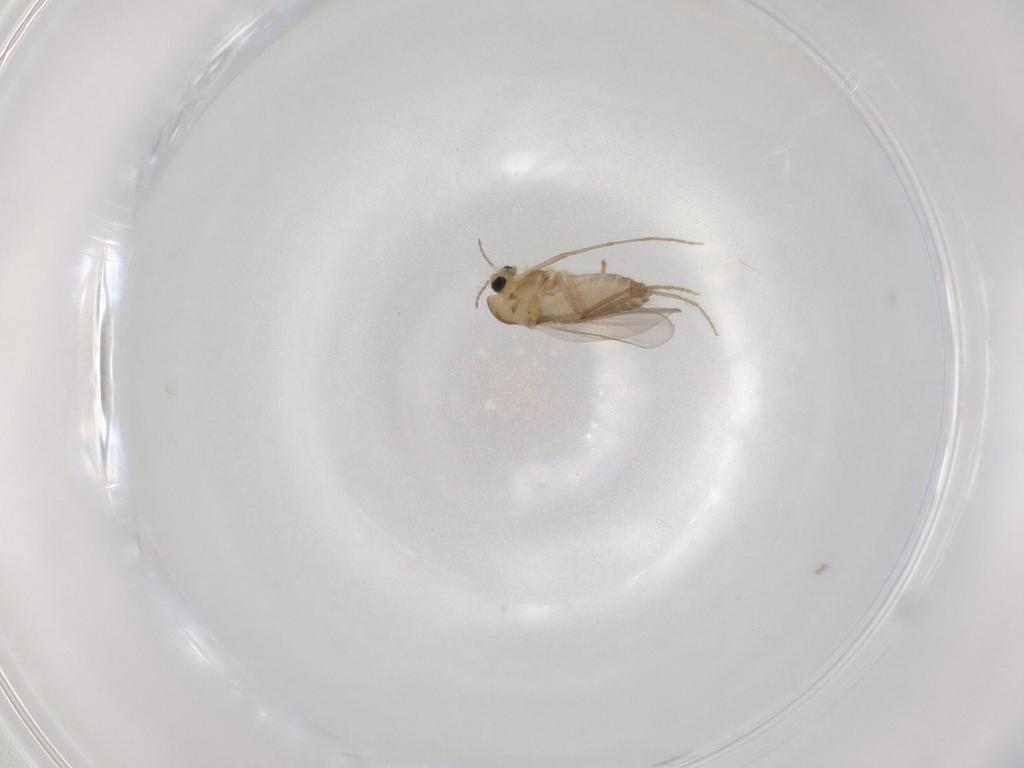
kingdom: Animalia
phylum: Arthropoda
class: Insecta
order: Diptera
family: Chironomidae
